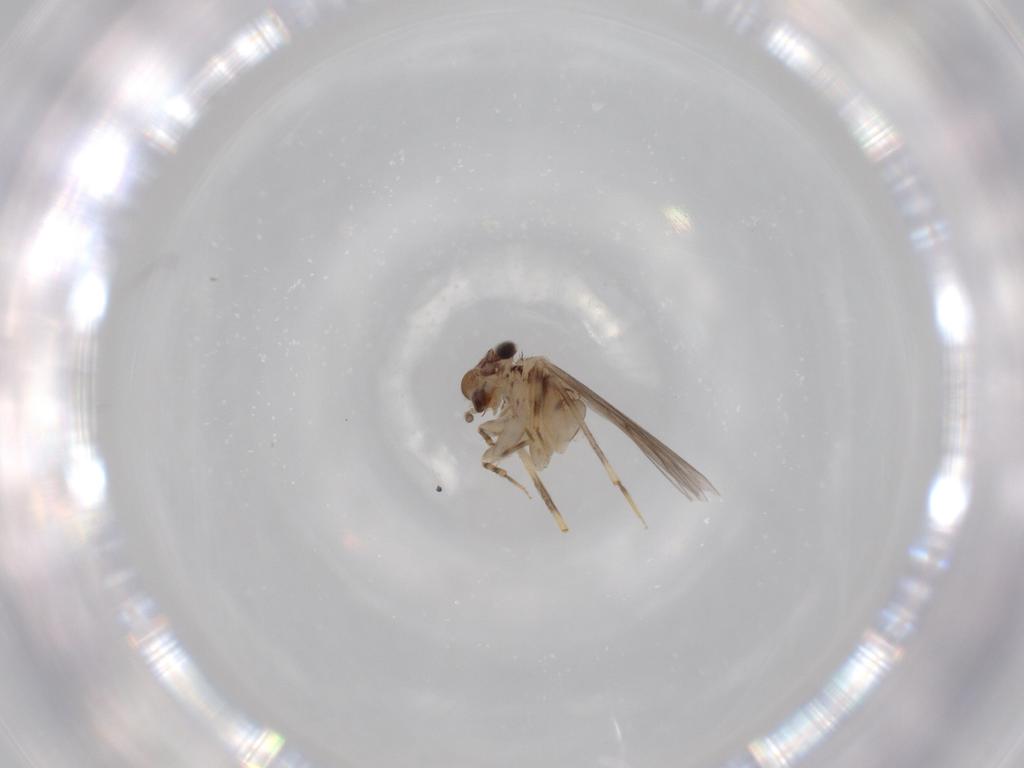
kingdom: Animalia
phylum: Arthropoda
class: Insecta
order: Psocodea
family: Lepidopsocidae
